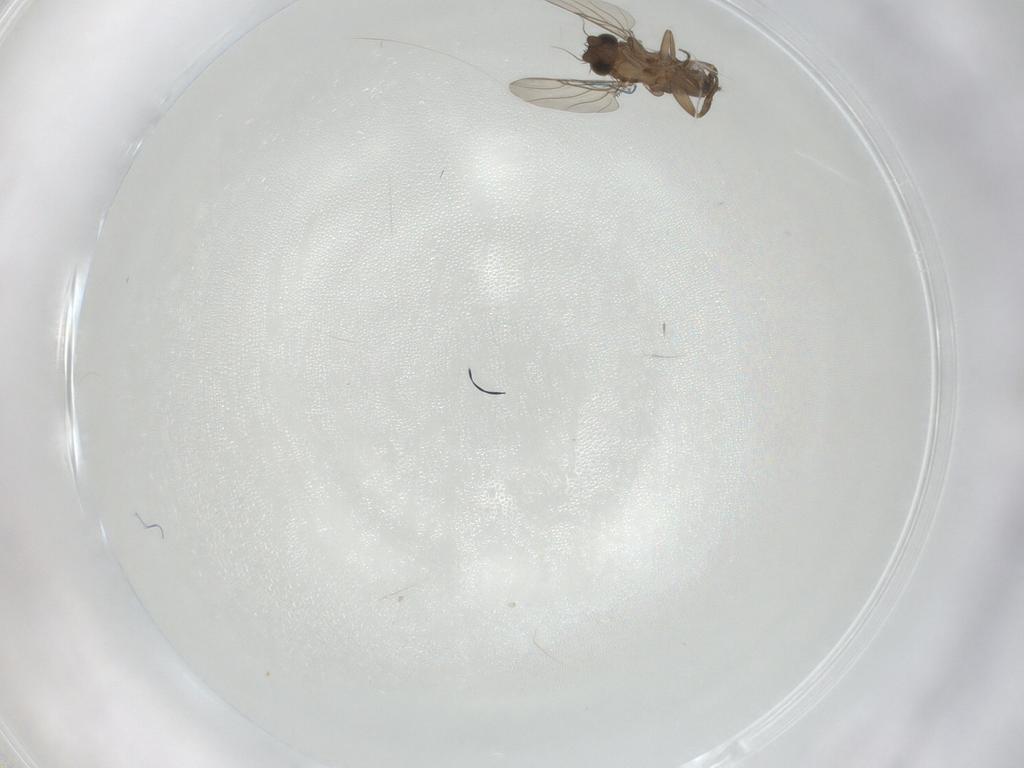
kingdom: Animalia
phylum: Arthropoda
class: Insecta
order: Diptera
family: Phoridae
